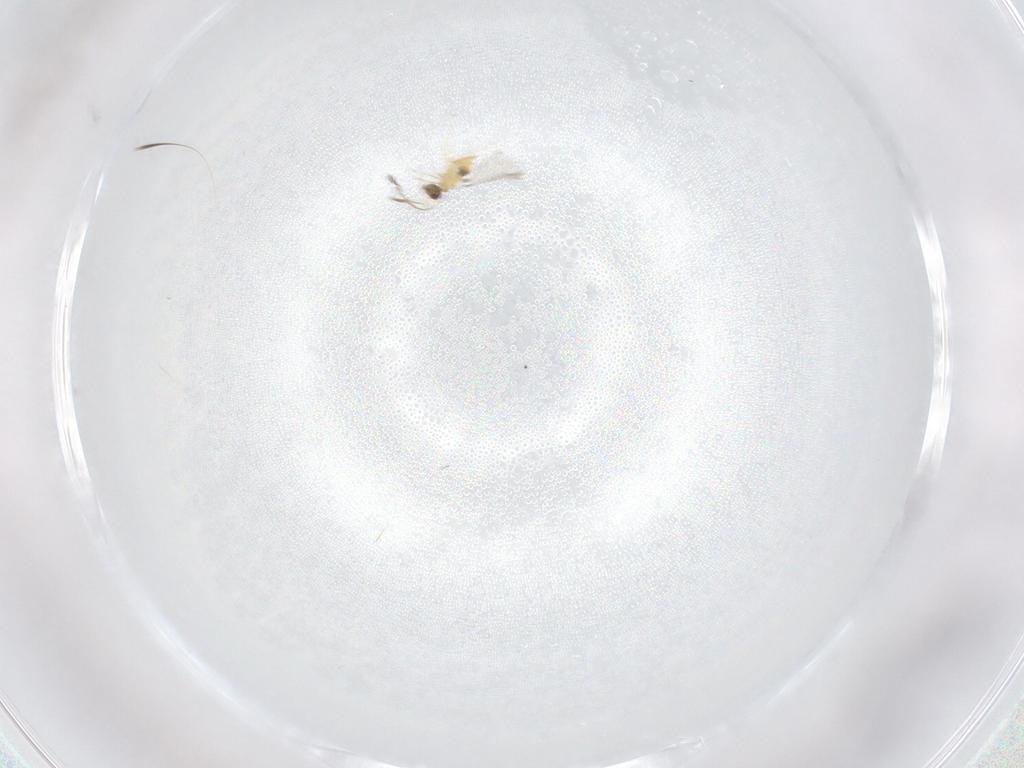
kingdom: Animalia
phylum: Arthropoda
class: Insecta
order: Hymenoptera
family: Mymaridae
